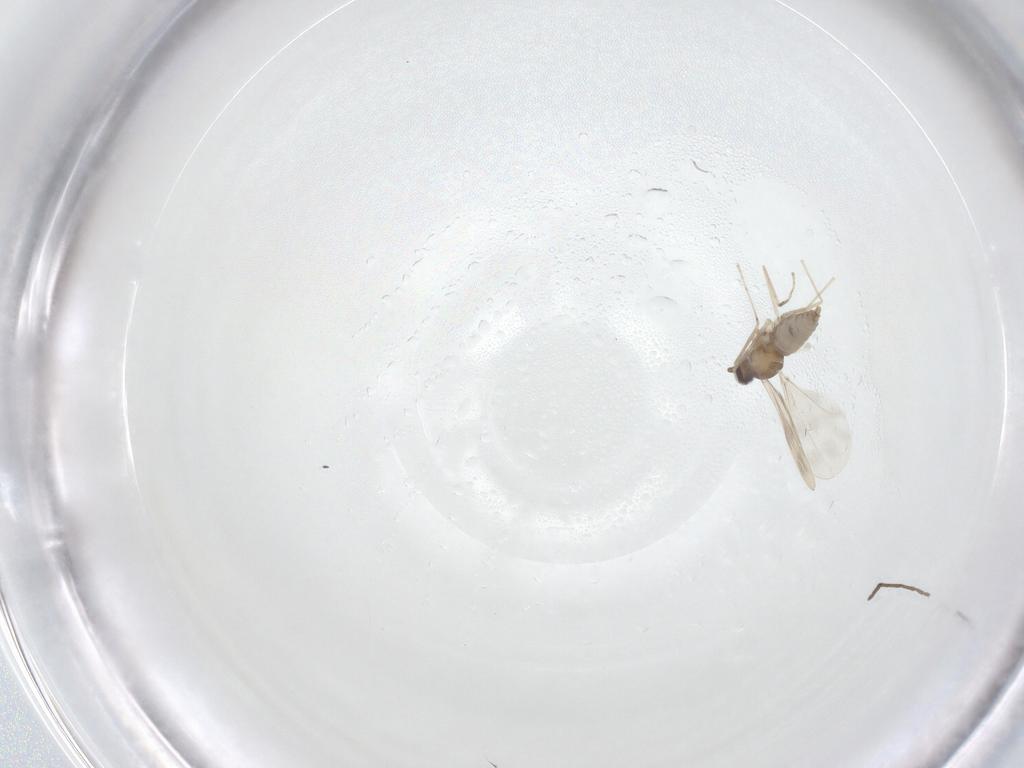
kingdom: Animalia
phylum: Arthropoda
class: Insecta
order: Diptera
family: Cecidomyiidae
